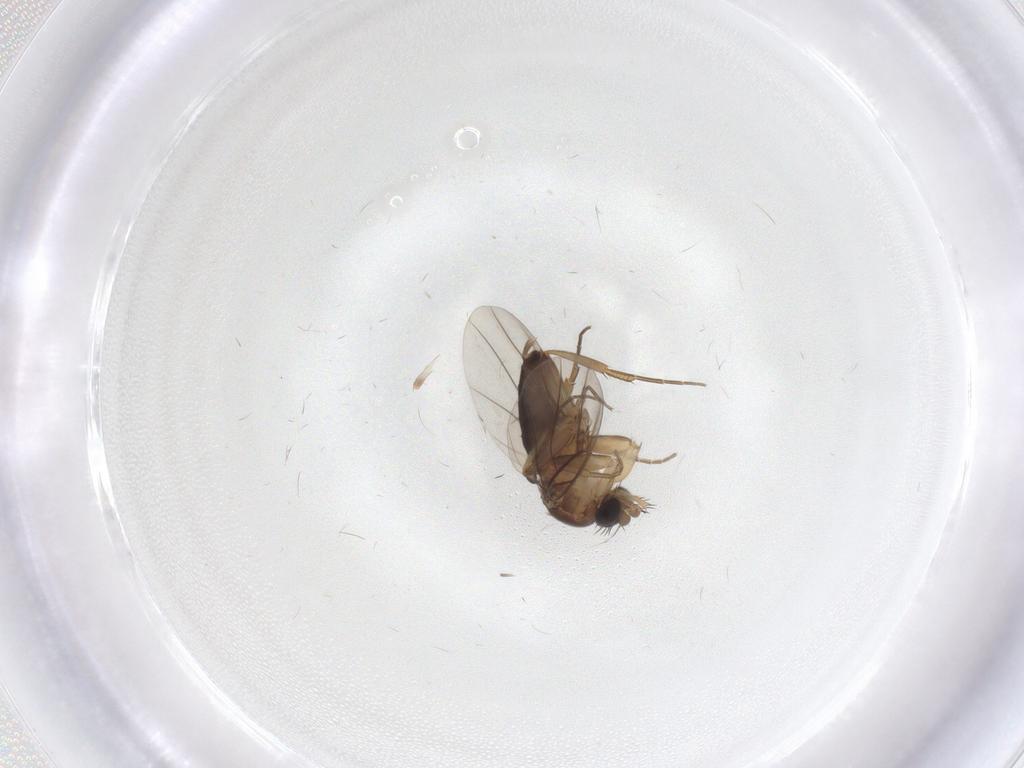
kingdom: Animalia
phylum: Arthropoda
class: Insecta
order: Diptera
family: Phoridae
